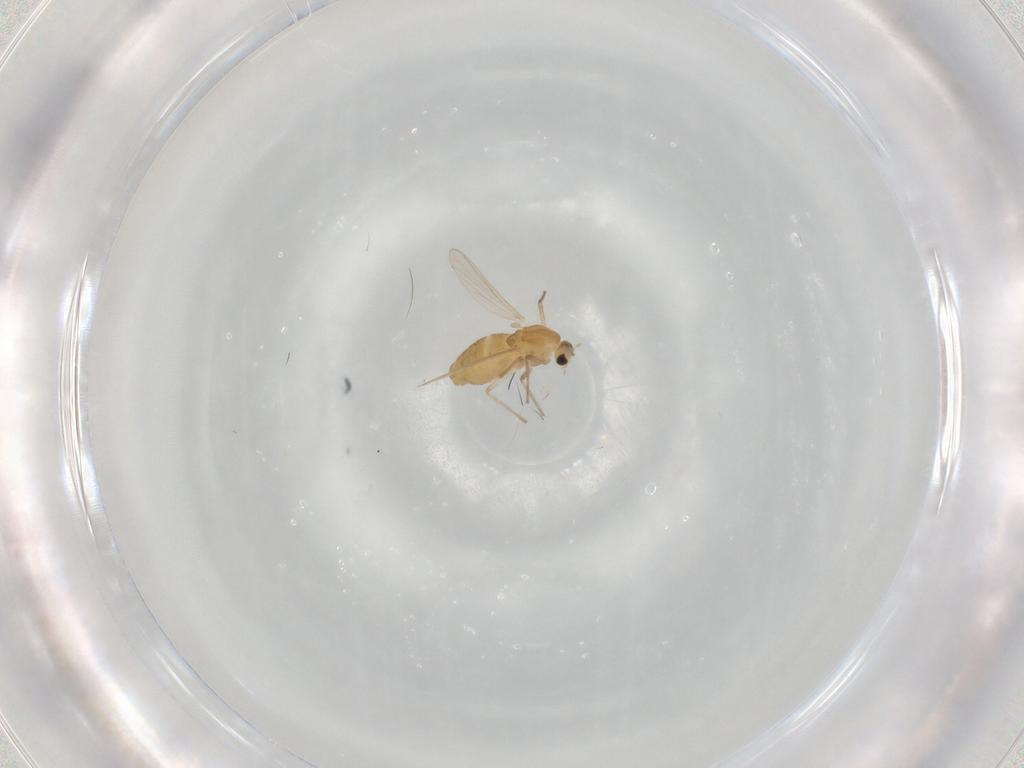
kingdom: Animalia
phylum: Arthropoda
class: Insecta
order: Diptera
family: Chironomidae
